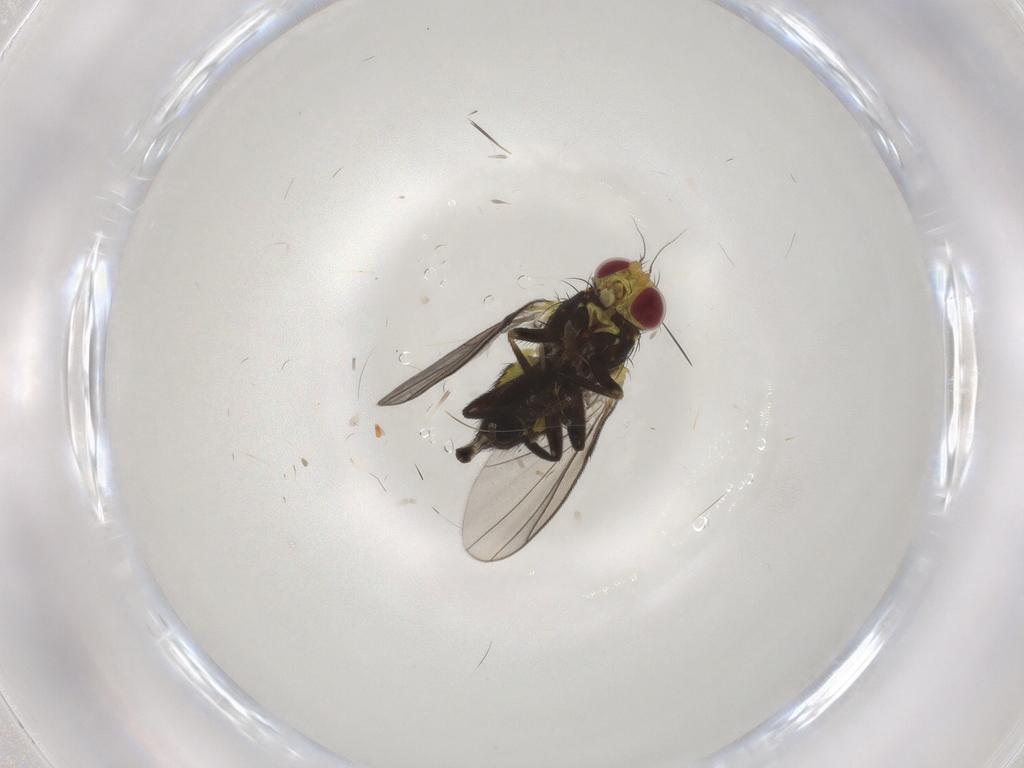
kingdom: Animalia
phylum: Arthropoda
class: Insecta
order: Diptera
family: Agromyzidae
